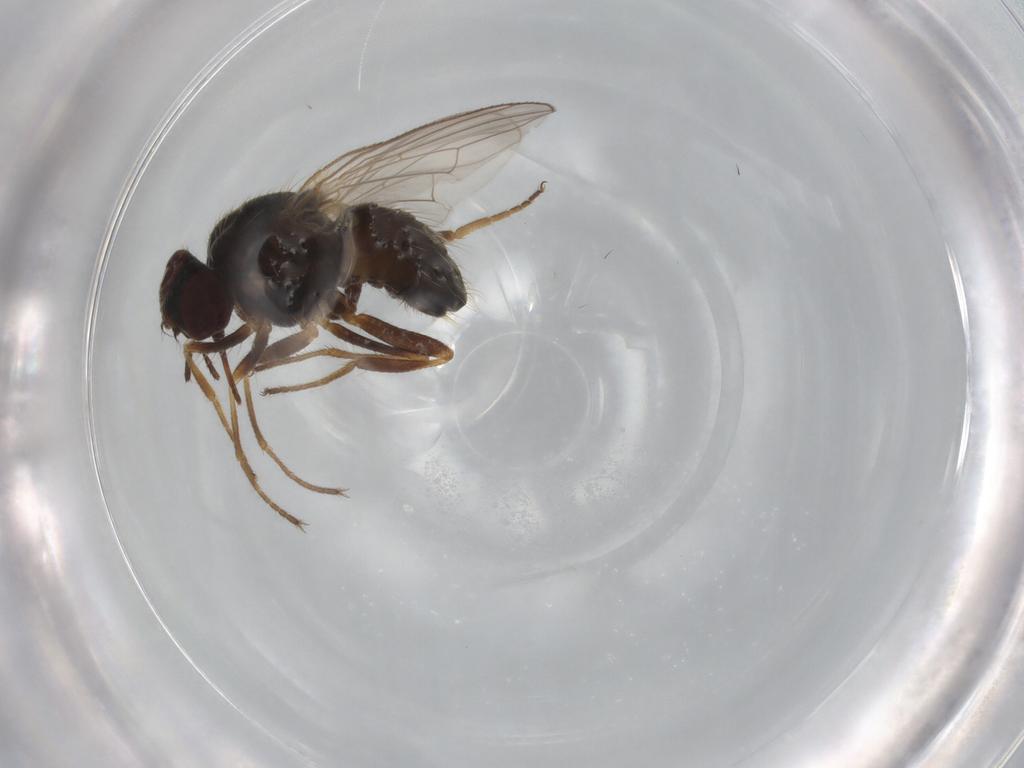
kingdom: Animalia
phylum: Arthropoda
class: Insecta
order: Diptera
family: Muscidae
